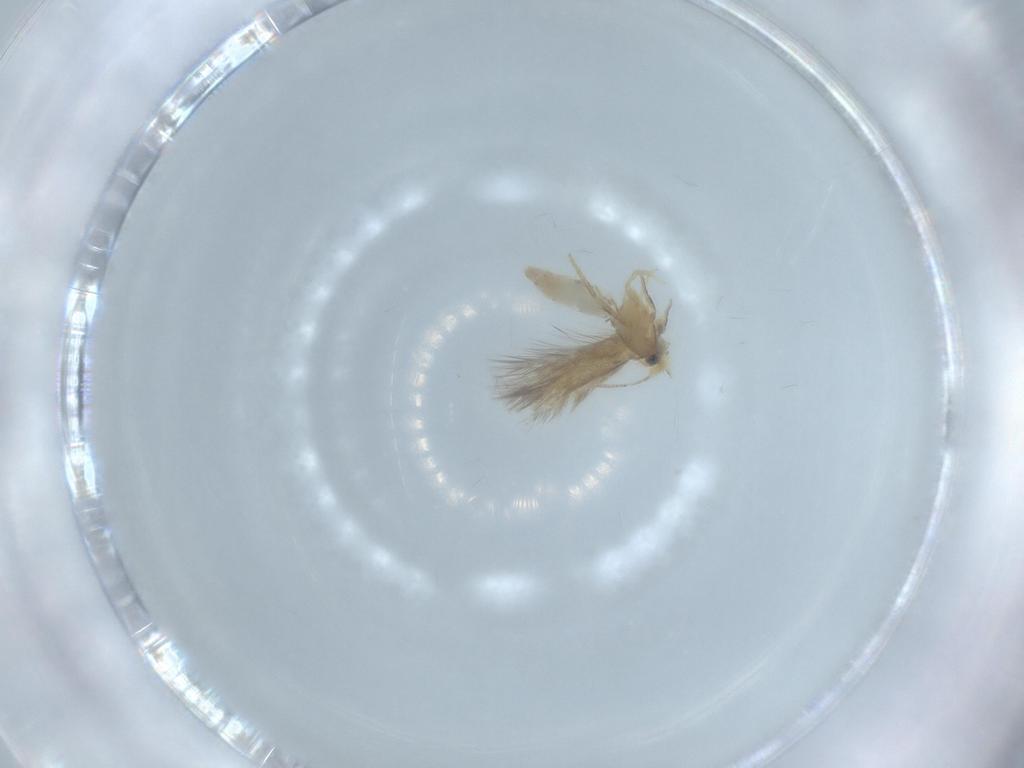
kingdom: Animalia
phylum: Arthropoda
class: Insecta
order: Lepidoptera
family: Nepticulidae
